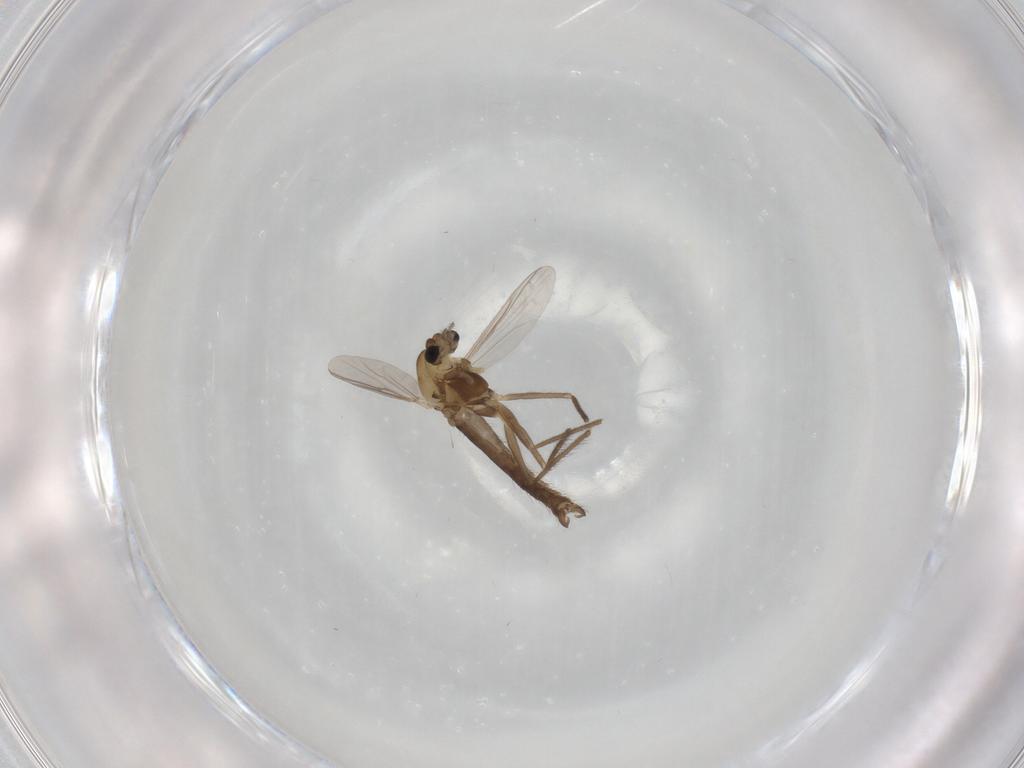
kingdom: Animalia
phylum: Arthropoda
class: Insecta
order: Diptera
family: Chironomidae
